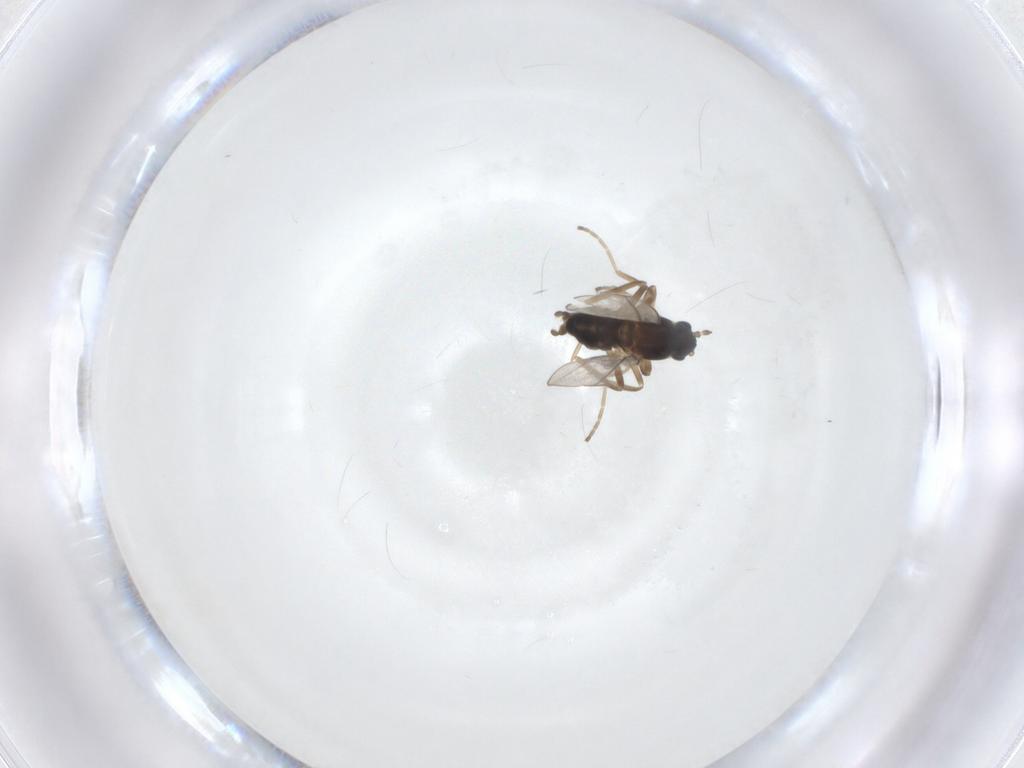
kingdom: Animalia
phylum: Arthropoda
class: Insecta
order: Diptera
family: Cecidomyiidae
